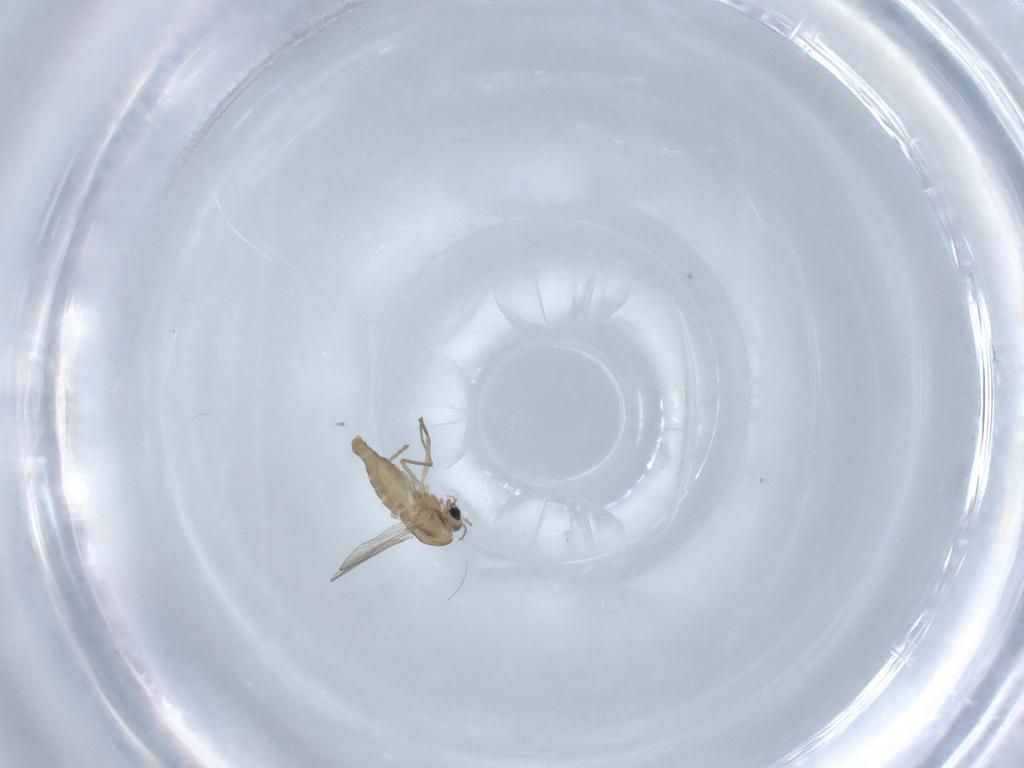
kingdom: Animalia
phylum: Arthropoda
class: Insecta
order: Diptera
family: Chironomidae
